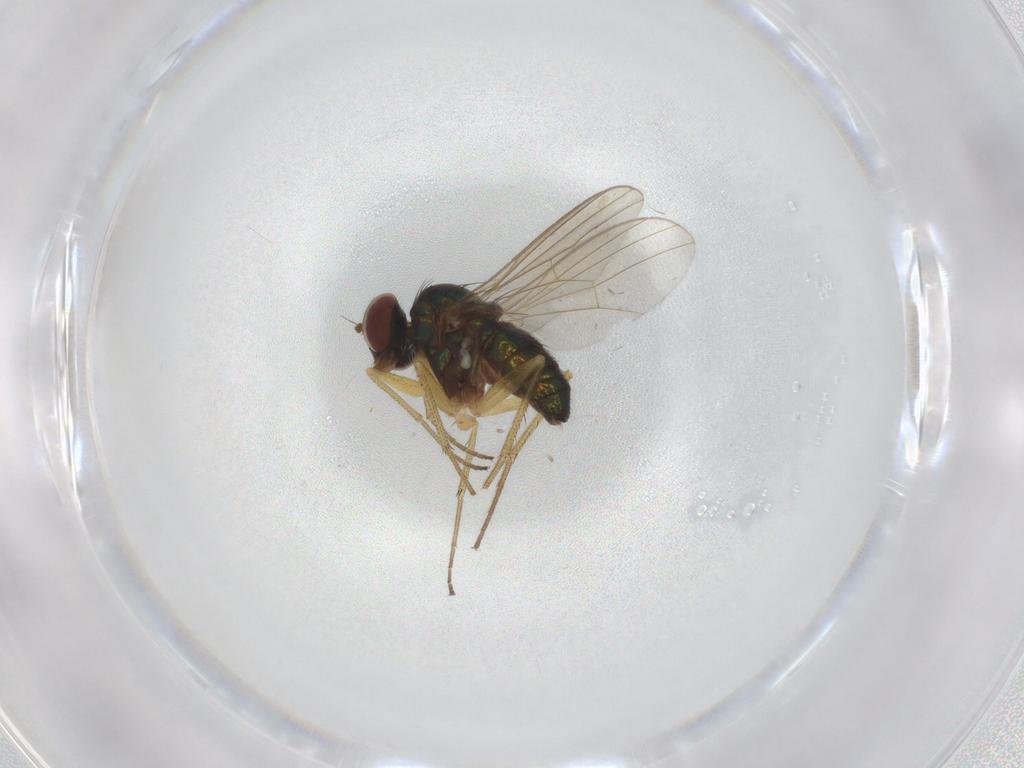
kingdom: Animalia
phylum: Arthropoda
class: Insecta
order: Diptera
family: Dolichopodidae
